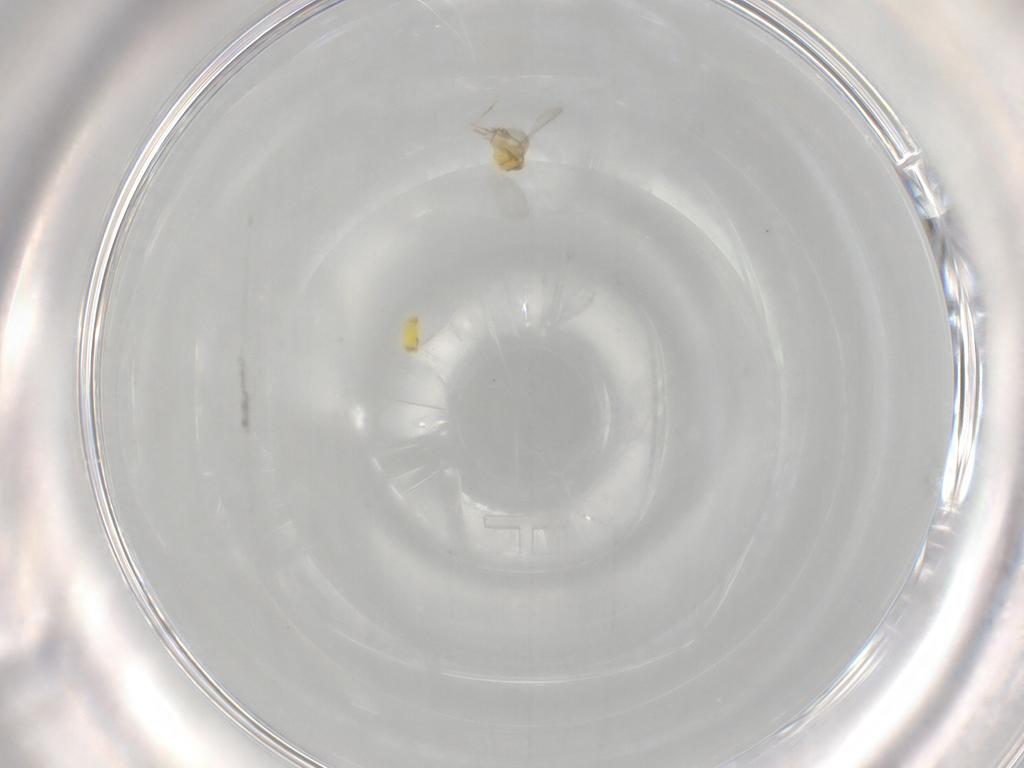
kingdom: Animalia
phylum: Arthropoda
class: Insecta
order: Hemiptera
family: Aleyrodidae
